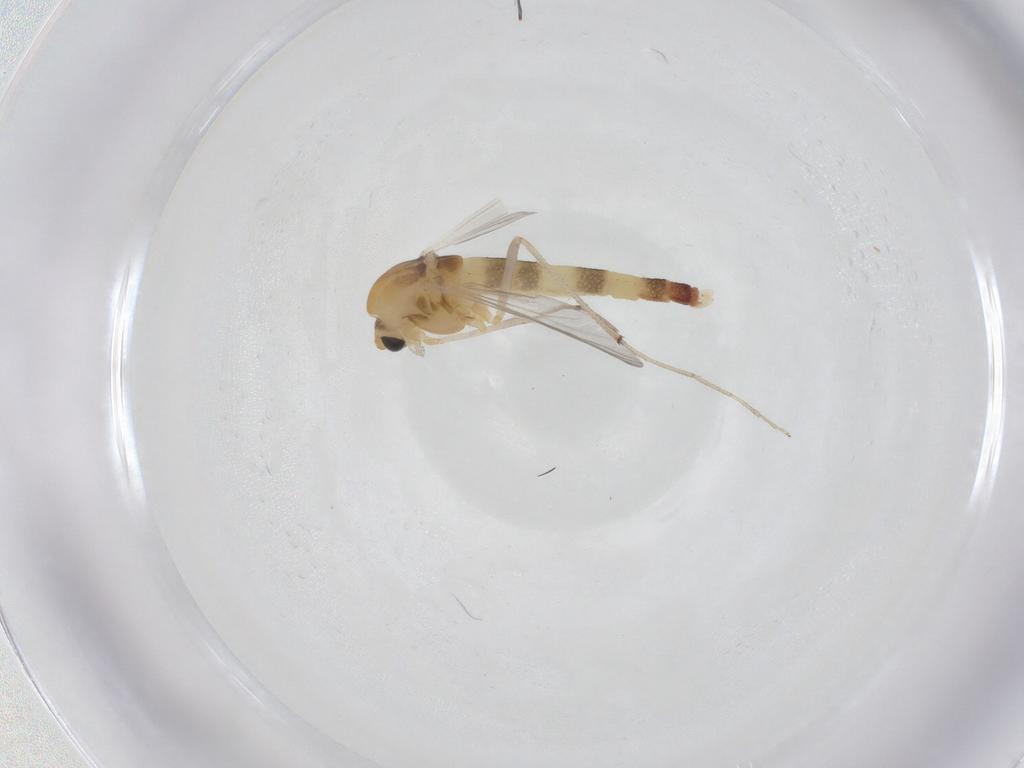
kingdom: Animalia
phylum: Arthropoda
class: Insecta
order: Diptera
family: Chironomidae
